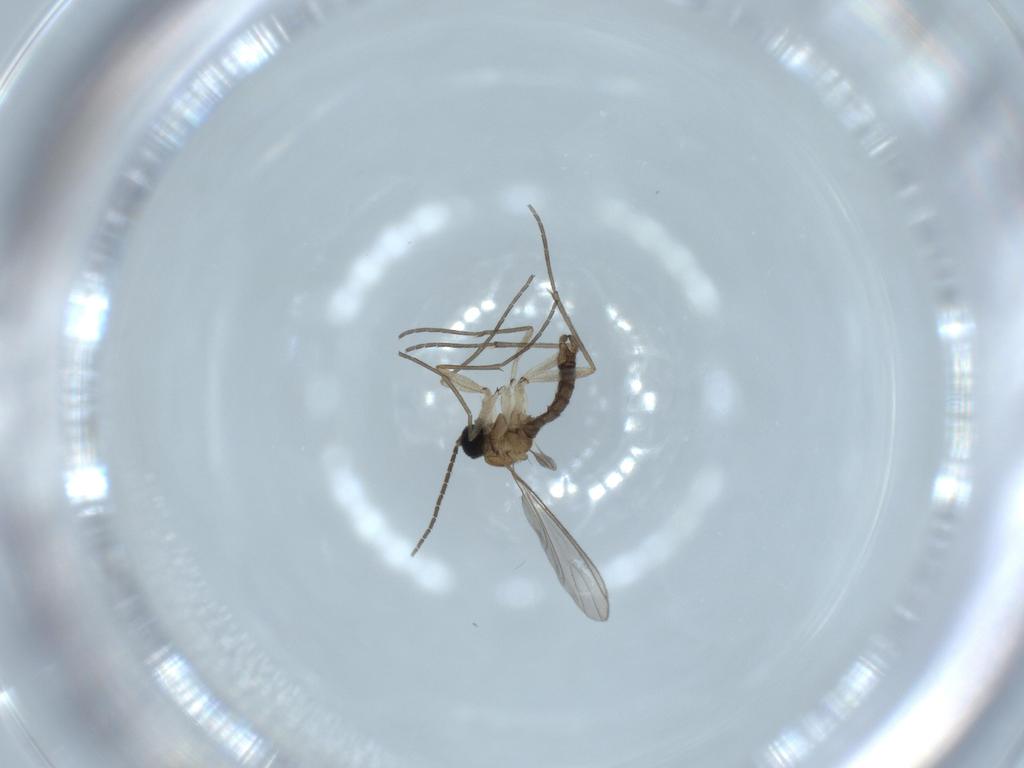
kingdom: Animalia
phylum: Arthropoda
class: Insecta
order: Diptera
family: Sciaridae
